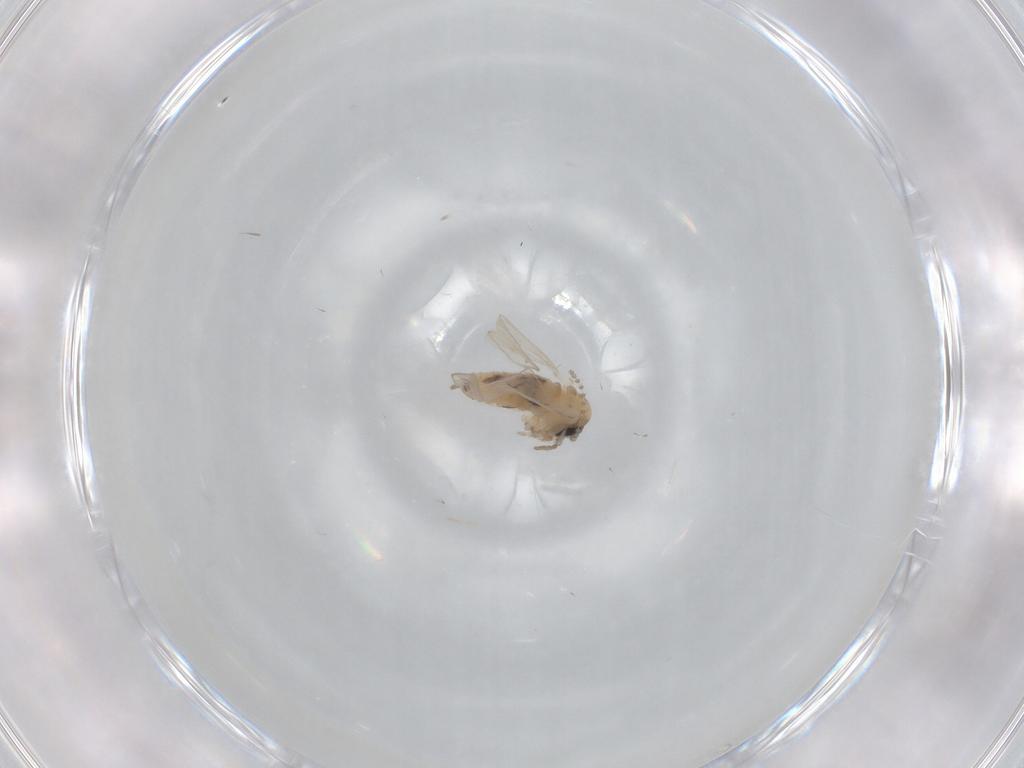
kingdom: Animalia
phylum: Arthropoda
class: Insecta
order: Diptera
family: Psychodidae
